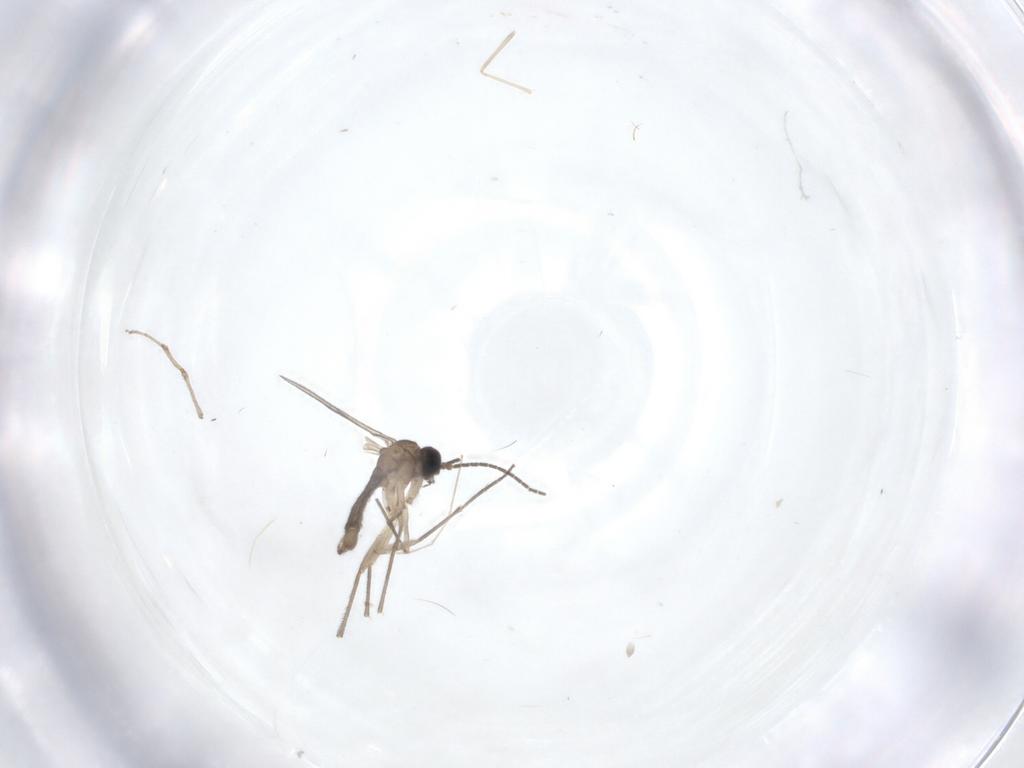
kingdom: Animalia
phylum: Arthropoda
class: Insecta
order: Diptera
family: Sciaridae
